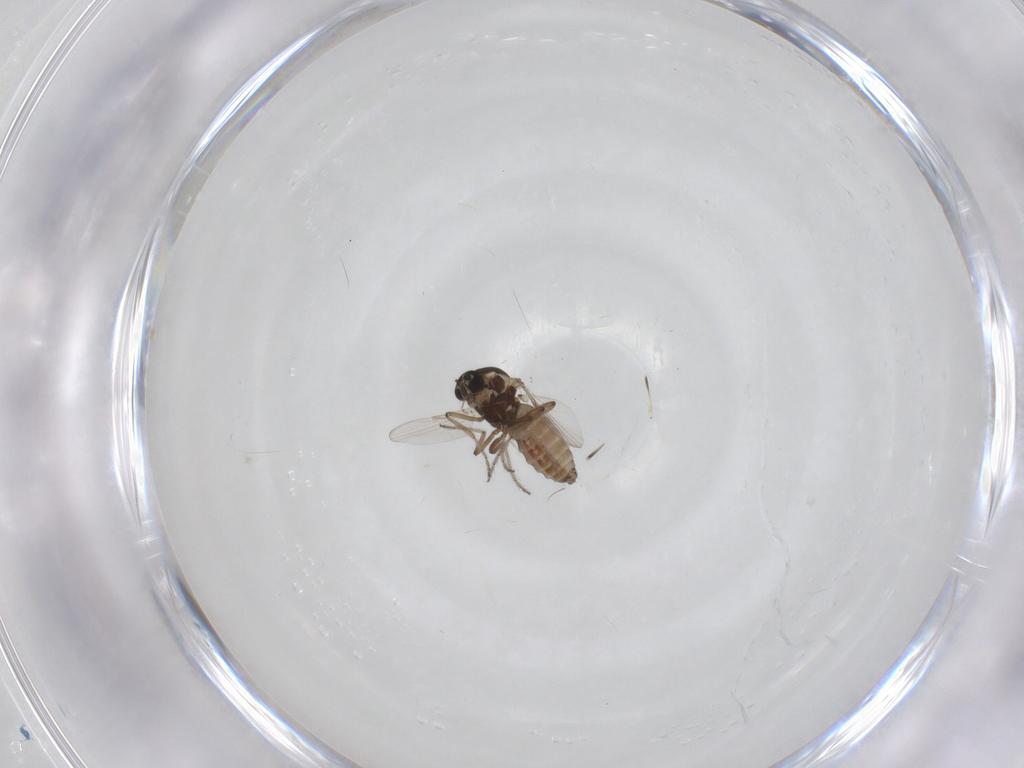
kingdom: Animalia
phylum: Arthropoda
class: Insecta
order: Diptera
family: Ceratopogonidae
